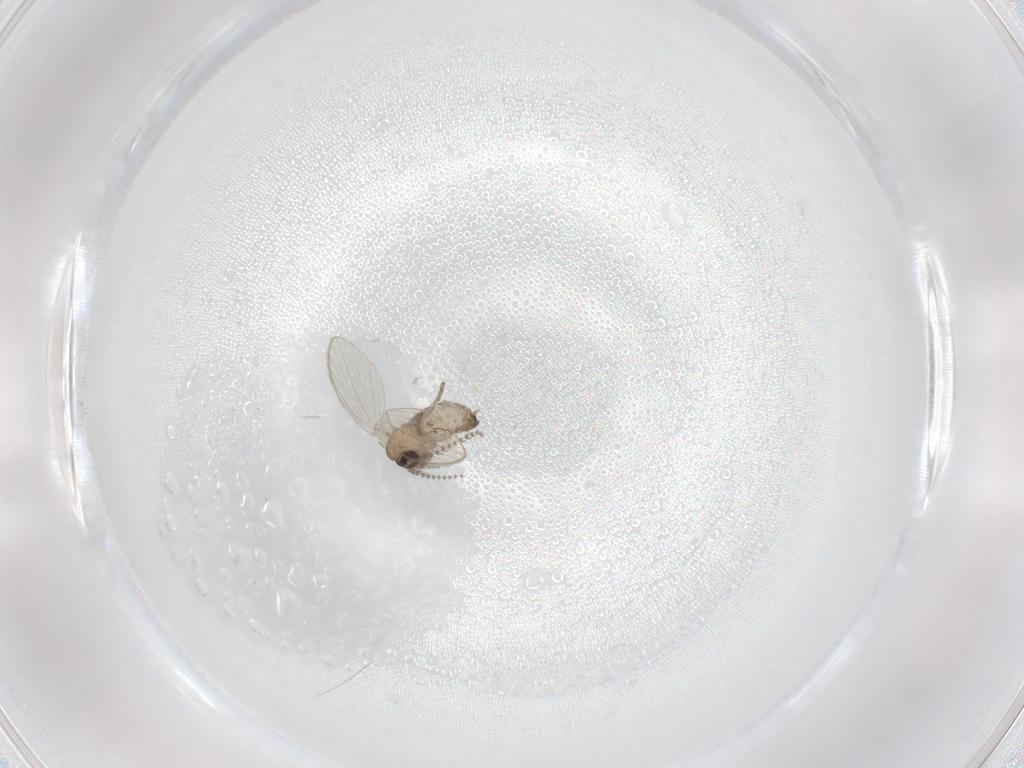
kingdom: Animalia
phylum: Arthropoda
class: Insecta
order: Diptera
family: Psychodidae
